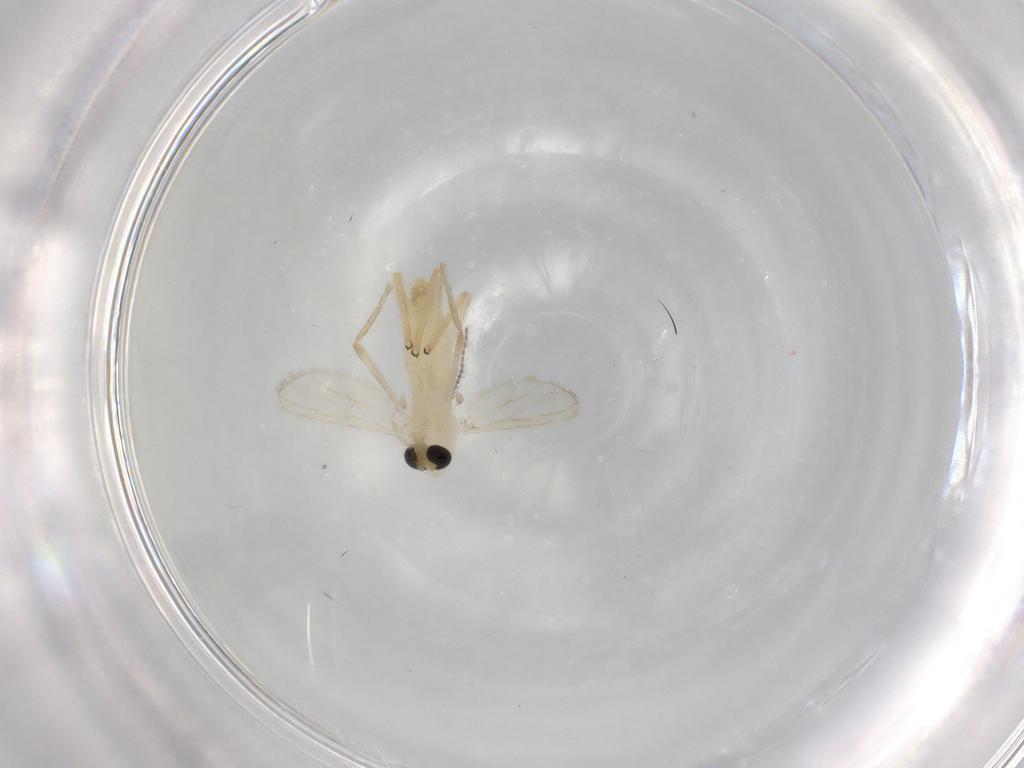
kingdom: Animalia
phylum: Arthropoda
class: Insecta
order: Diptera
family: Chironomidae
